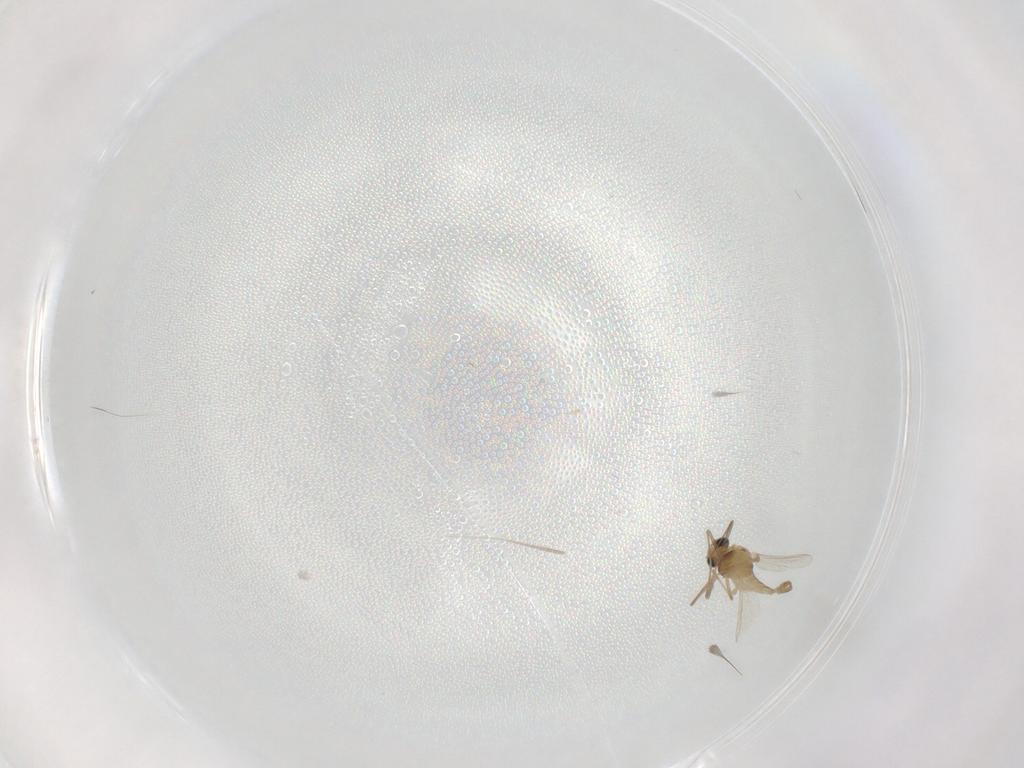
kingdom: Animalia
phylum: Arthropoda
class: Insecta
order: Diptera
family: Chironomidae
